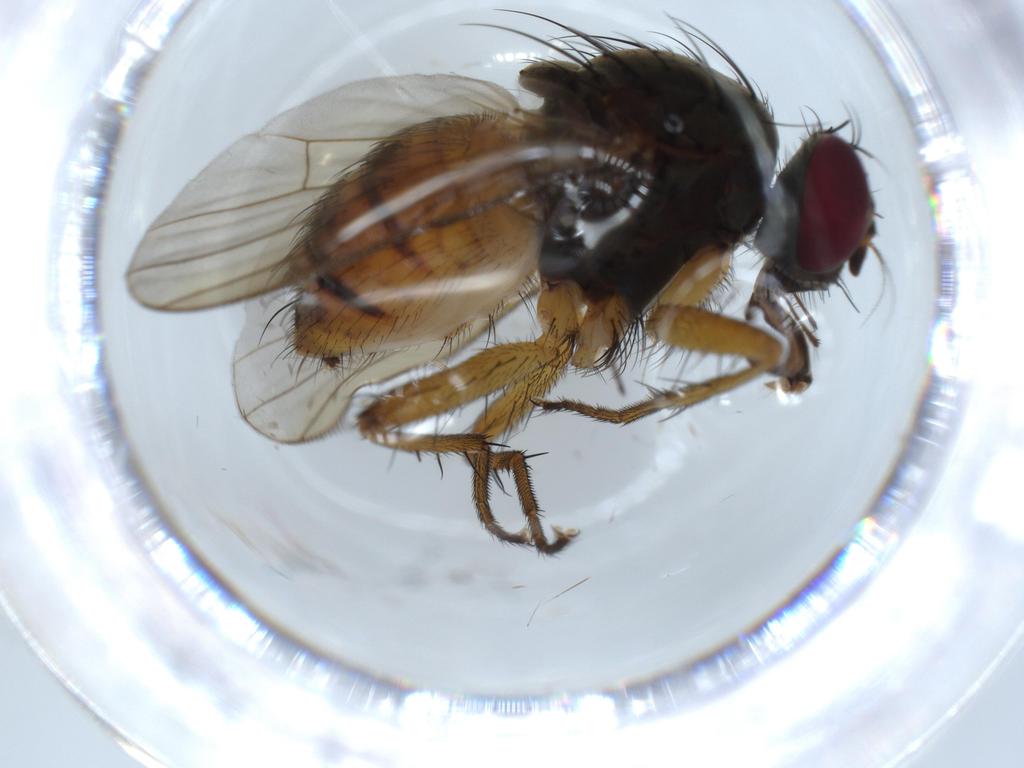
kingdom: Animalia
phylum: Arthropoda
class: Insecta
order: Diptera
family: Muscidae
